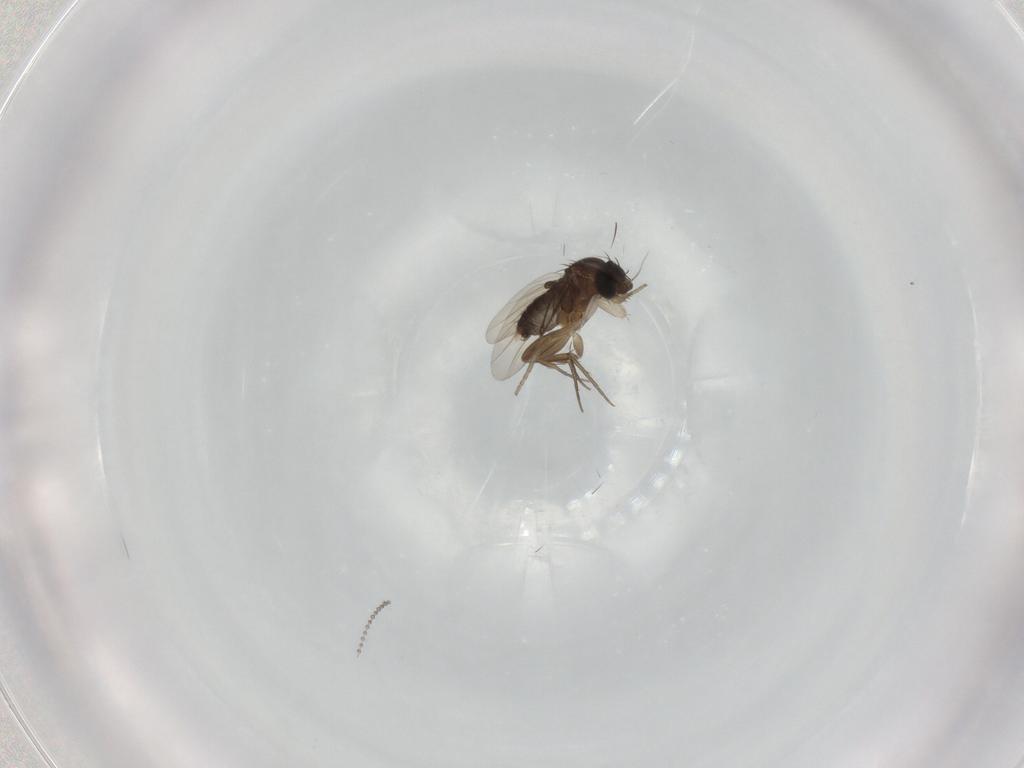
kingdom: Animalia
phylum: Arthropoda
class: Insecta
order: Diptera
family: Phoridae
